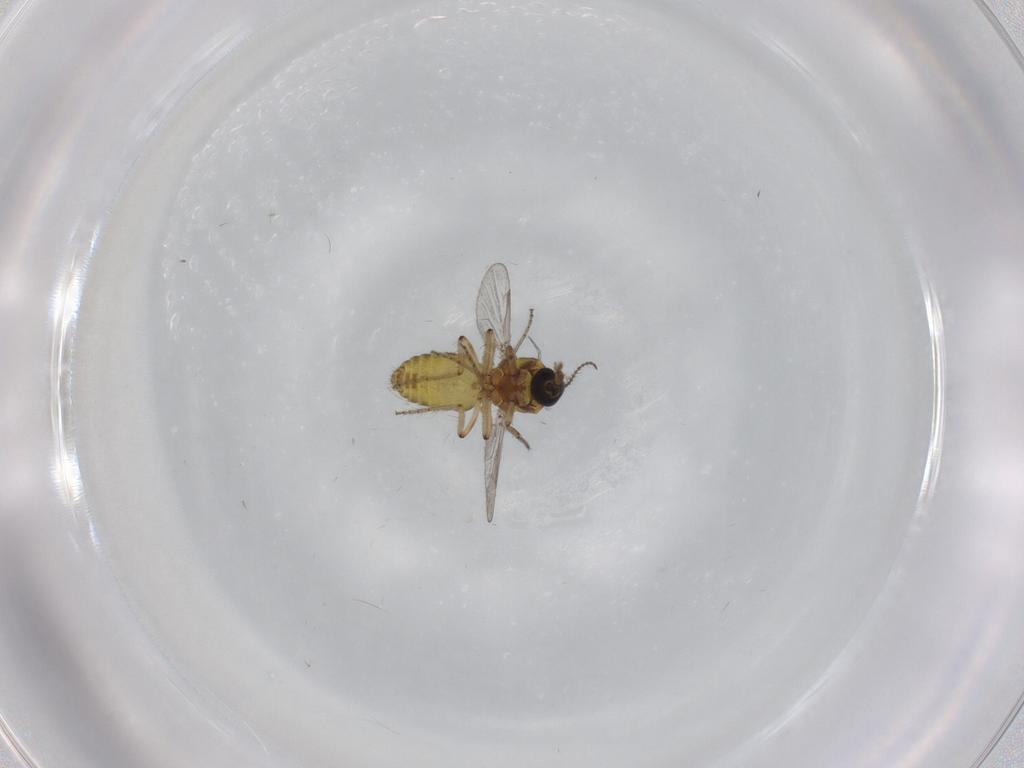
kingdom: Animalia
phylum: Arthropoda
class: Insecta
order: Diptera
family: Ceratopogonidae
